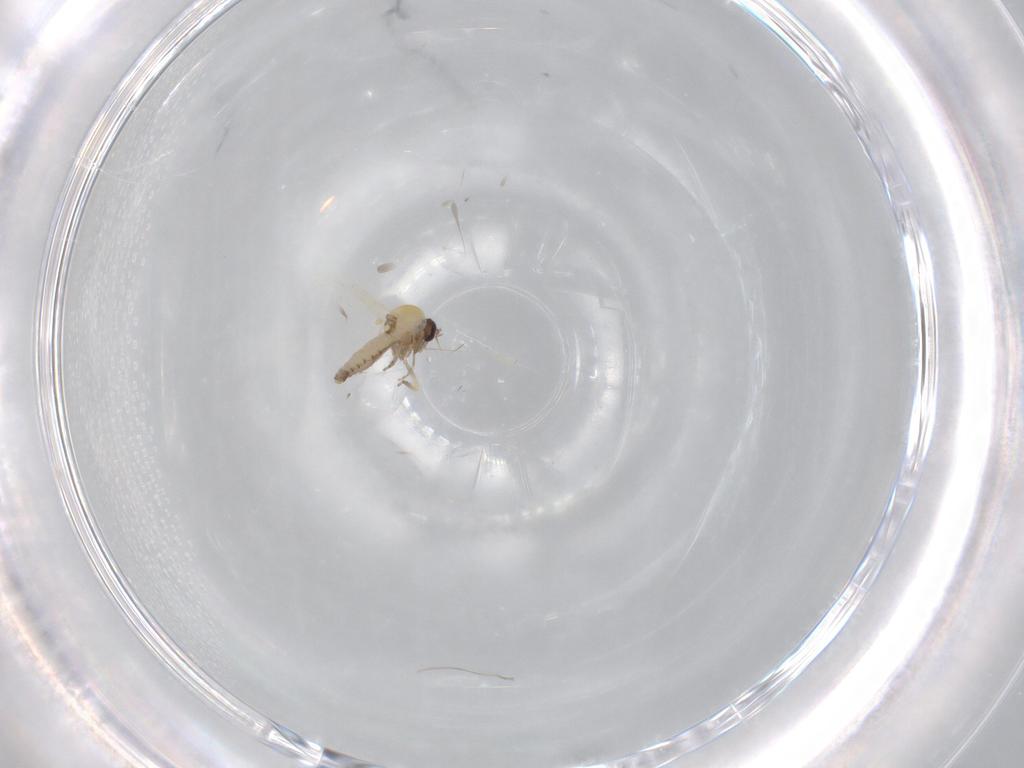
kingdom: Animalia
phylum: Arthropoda
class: Insecta
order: Diptera
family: Ceratopogonidae
